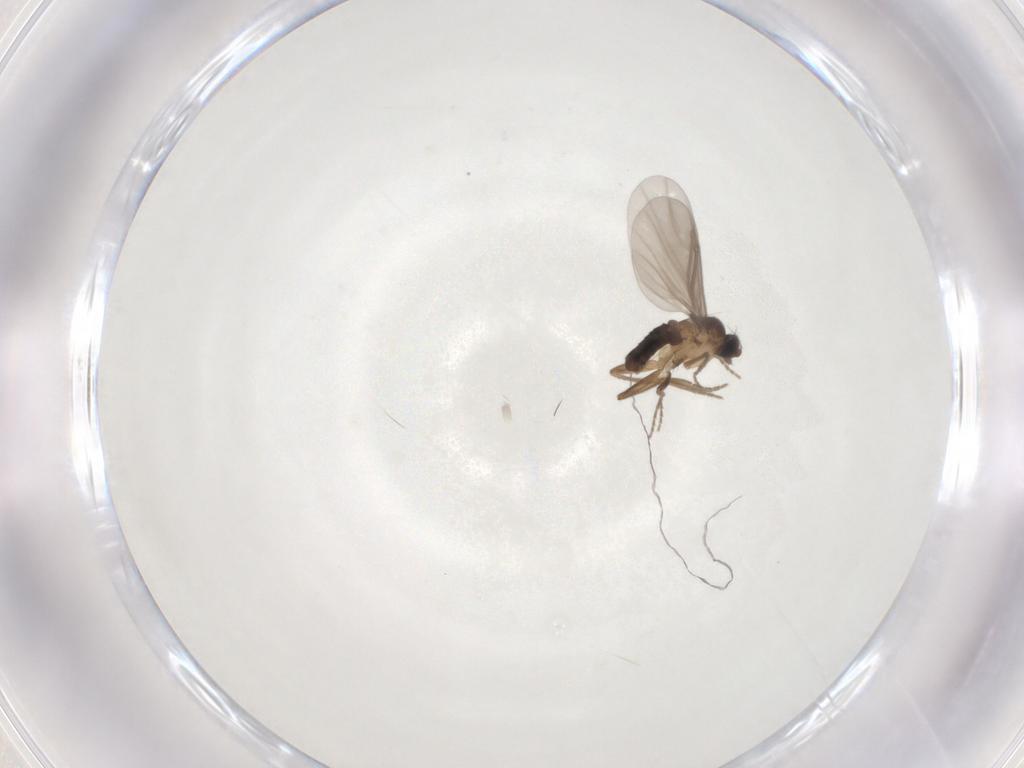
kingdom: Animalia
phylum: Arthropoda
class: Insecta
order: Diptera
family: Phoridae
